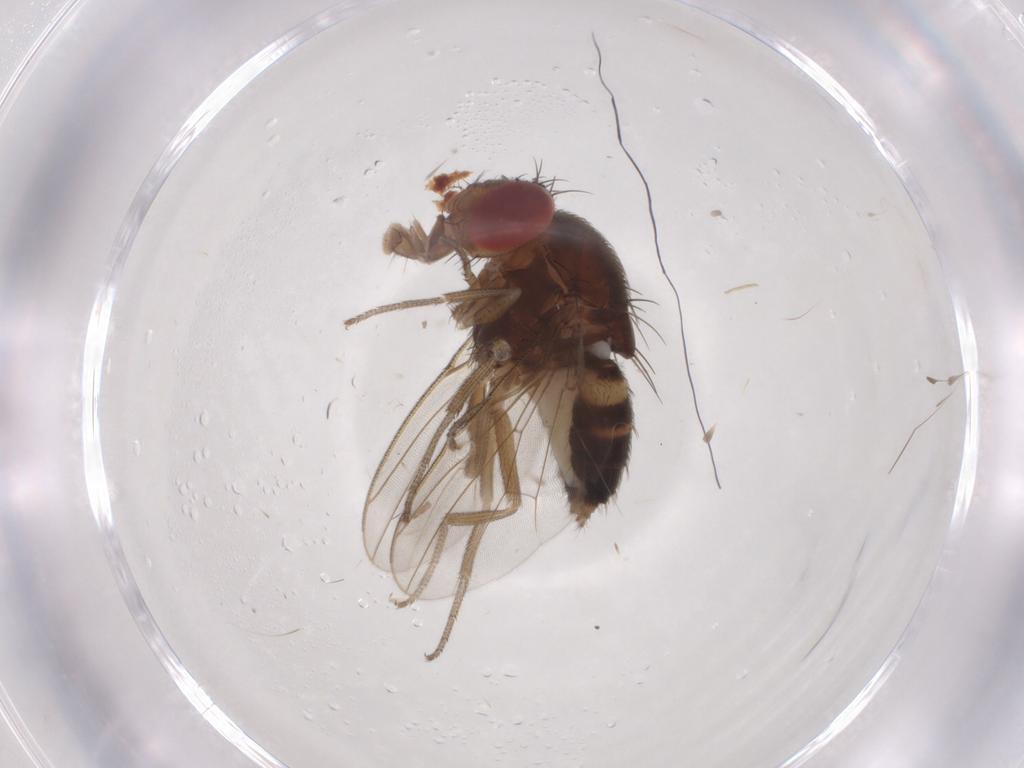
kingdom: Animalia
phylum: Arthropoda
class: Insecta
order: Diptera
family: Drosophilidae
